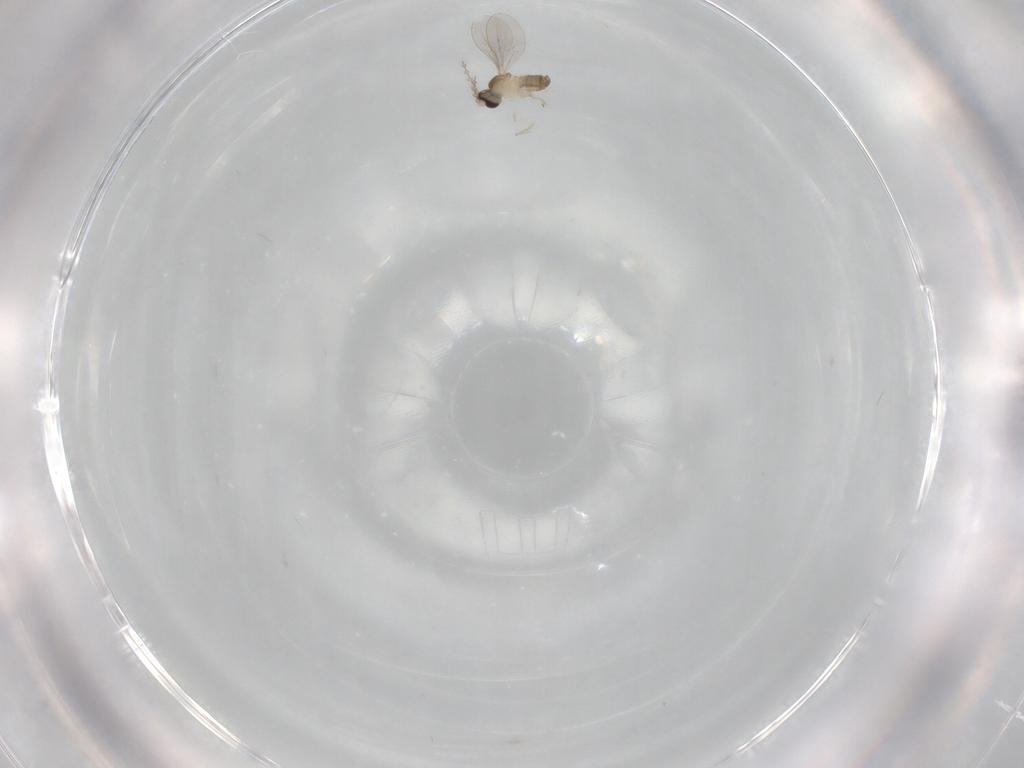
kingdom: Animalia
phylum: Arthropoda
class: Insecta
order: Diptera
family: Cecidomyiidae
